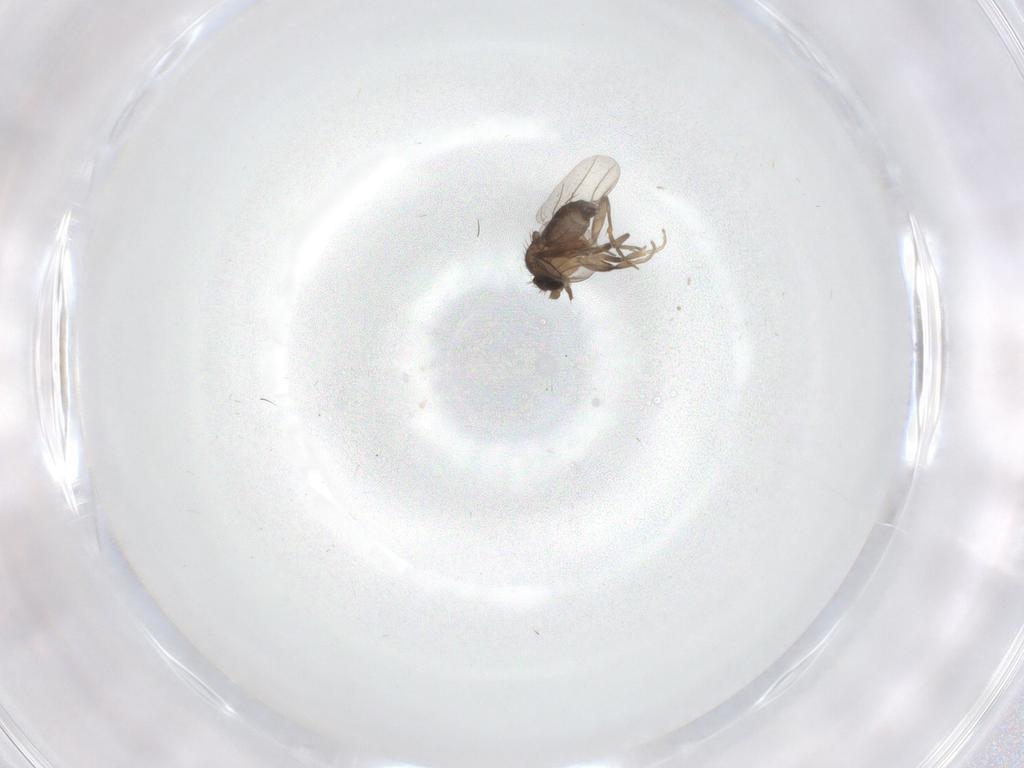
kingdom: Animalia
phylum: Arthropoda
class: Insecta
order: Diptera
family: Phoridae
